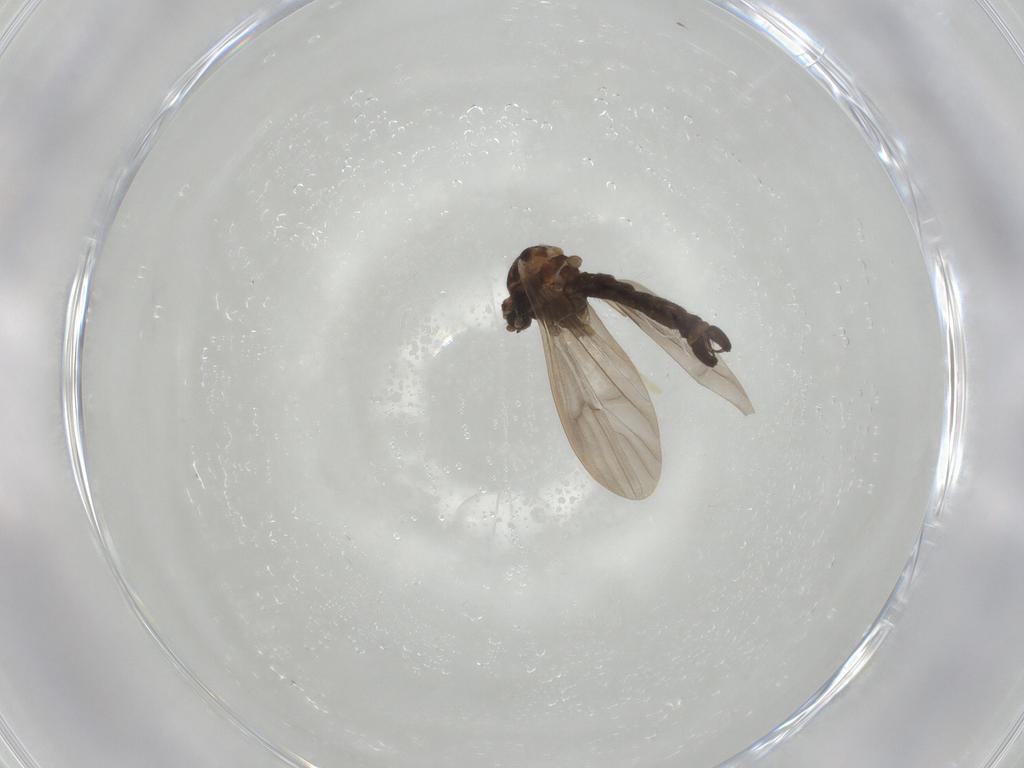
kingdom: Animalia
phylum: Arthropoda
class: Insecta
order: Diptera
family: Limoniidae
